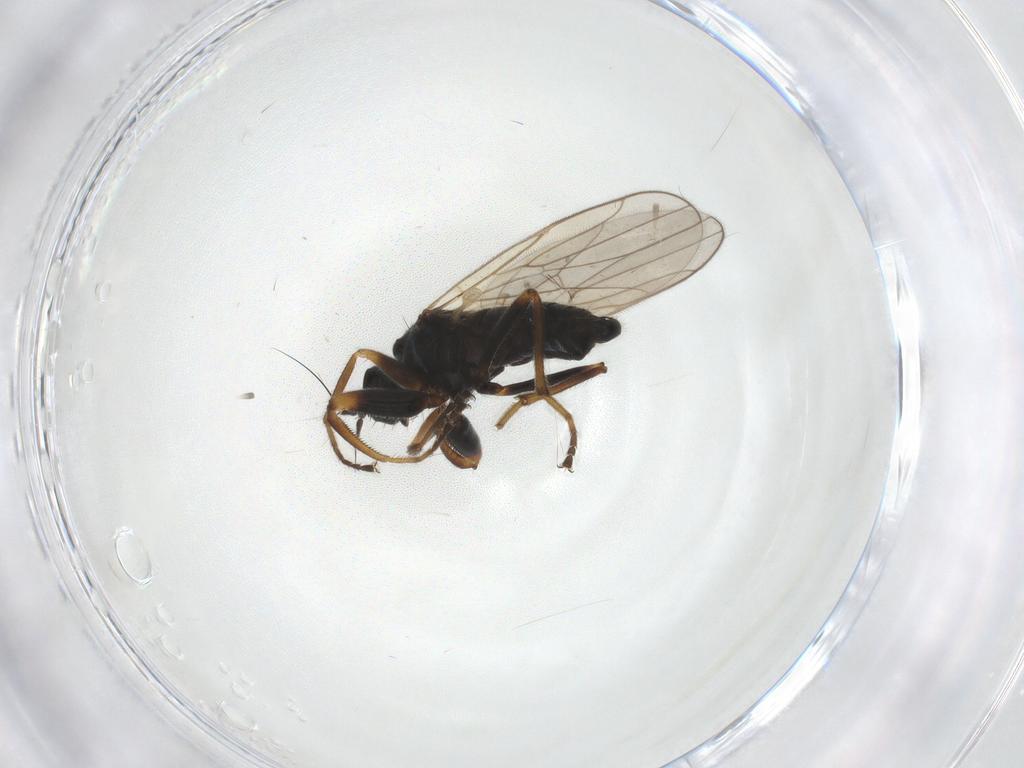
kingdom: Animalia
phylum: Arthropoda
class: Insecta
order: Diptera
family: Hybotidae
